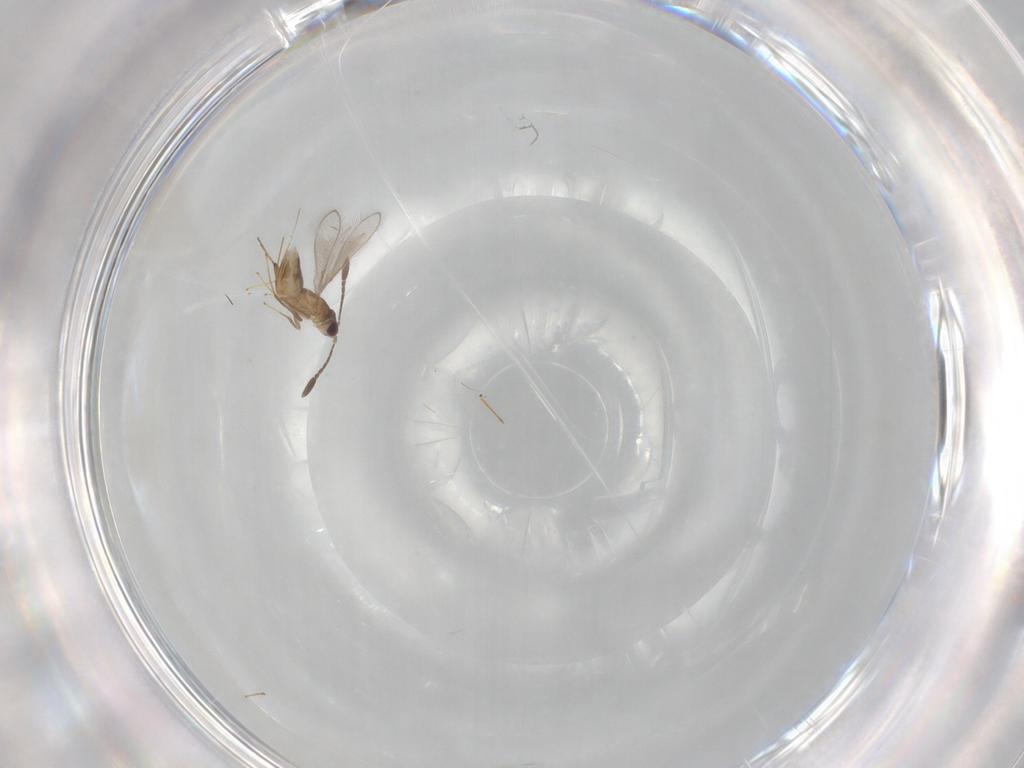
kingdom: Animalia
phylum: Arthropoda
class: Insecta
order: Hymenoptera
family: Mymaridae
